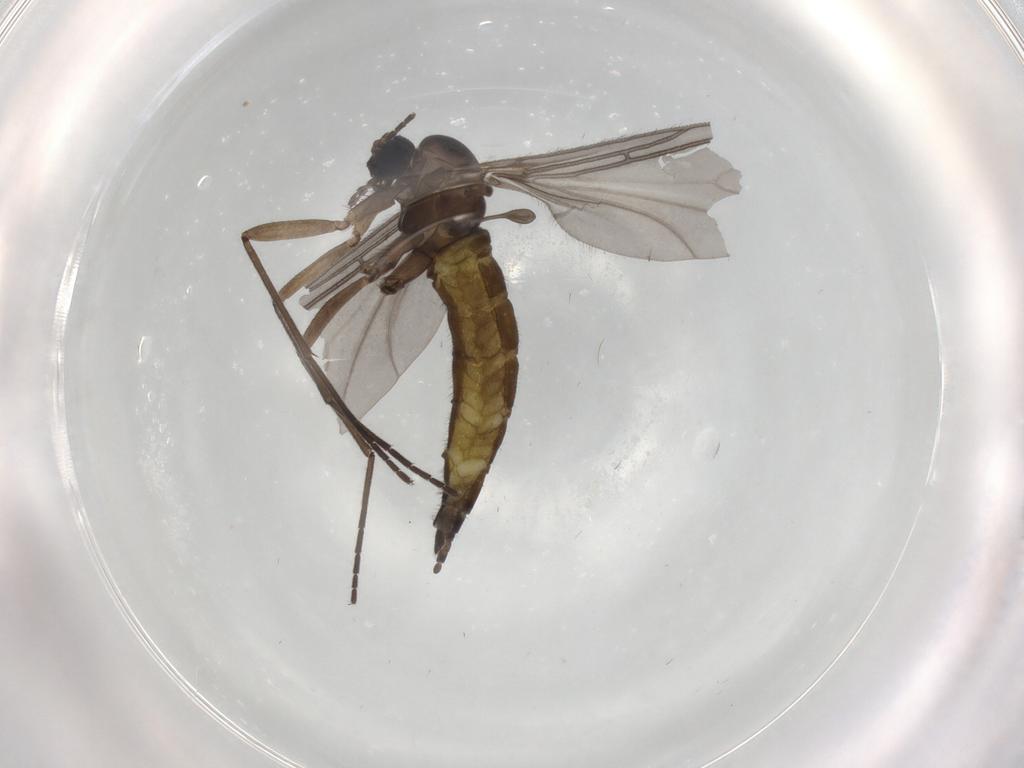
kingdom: Animalia
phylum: Arthropoda
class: Insecta
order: Diptera
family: Sciaridae
